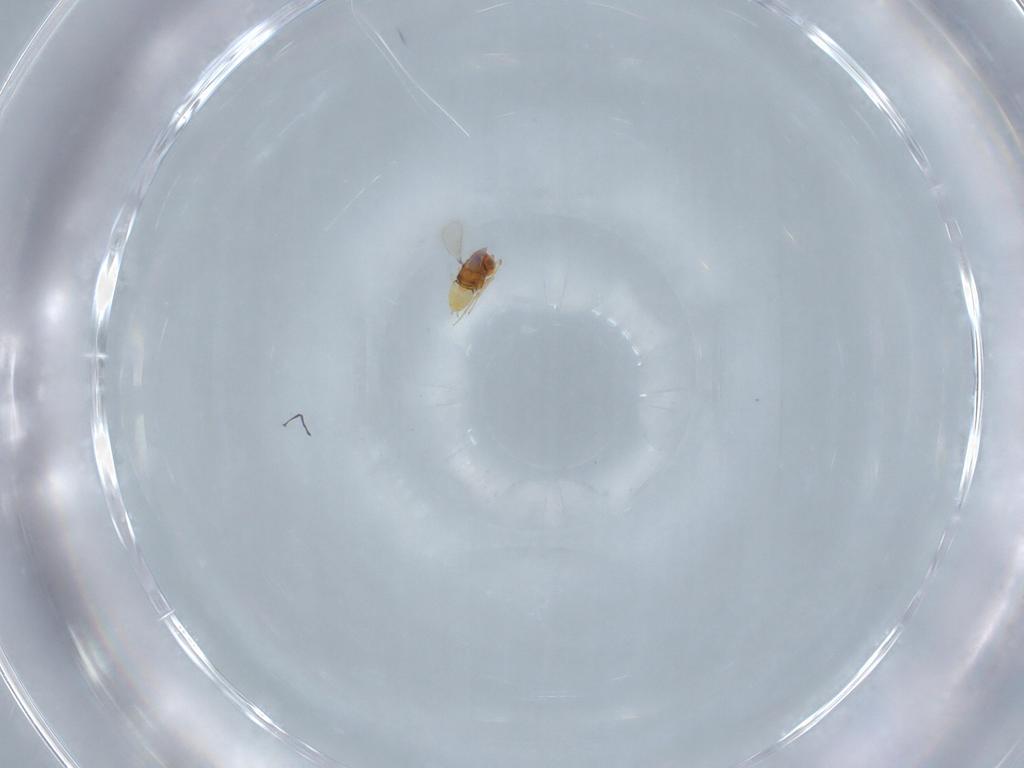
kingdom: Animalia
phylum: Arthropoda
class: Insecta
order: Hymenoptera
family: Aphelinidae
